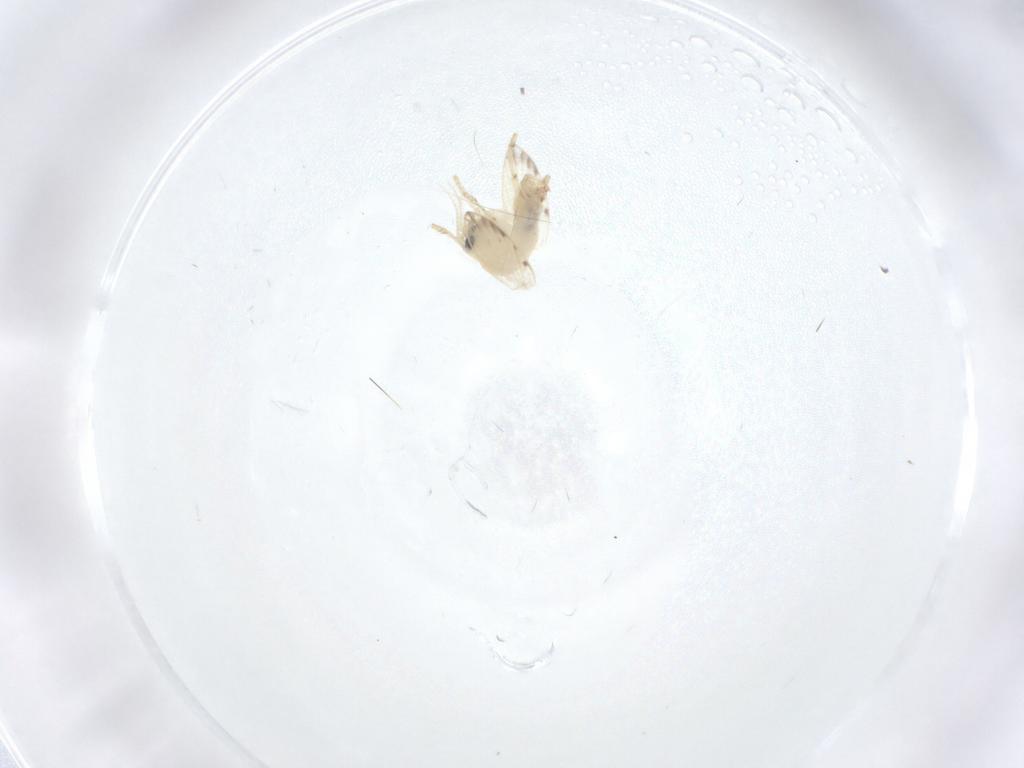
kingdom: Animalia
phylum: Arthropoda
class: Insecta
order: Diptera
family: Psychodidae
